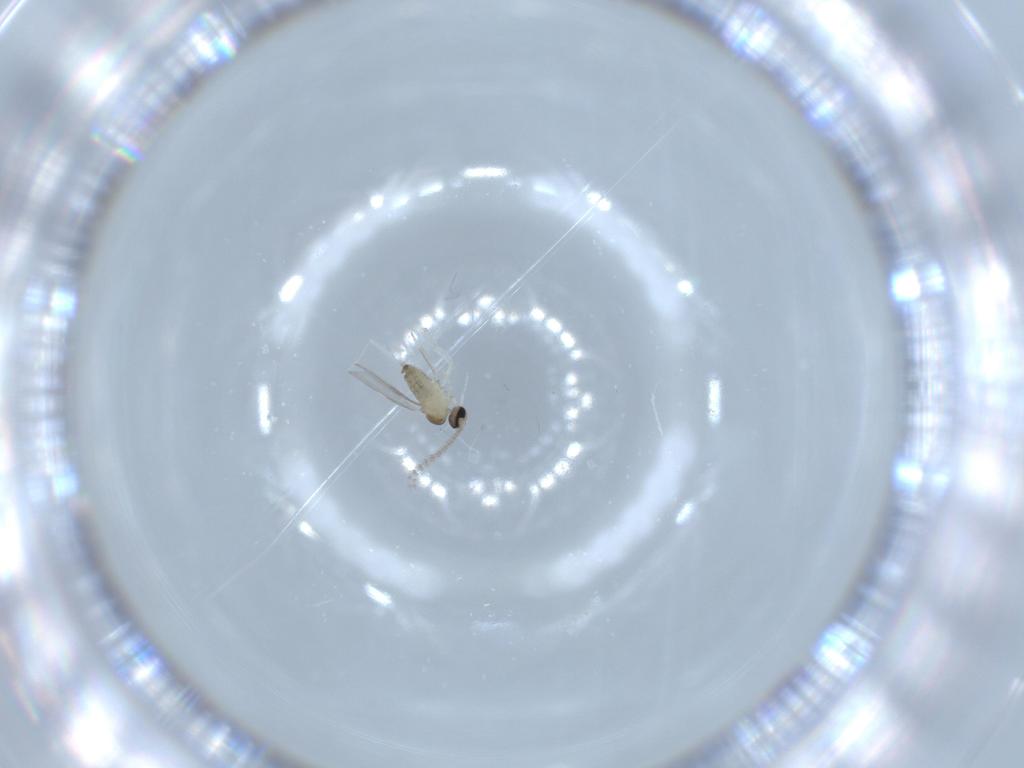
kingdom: Animalia
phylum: Arthropoda
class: Insecta
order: Diptera
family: Cecidomyiidae
